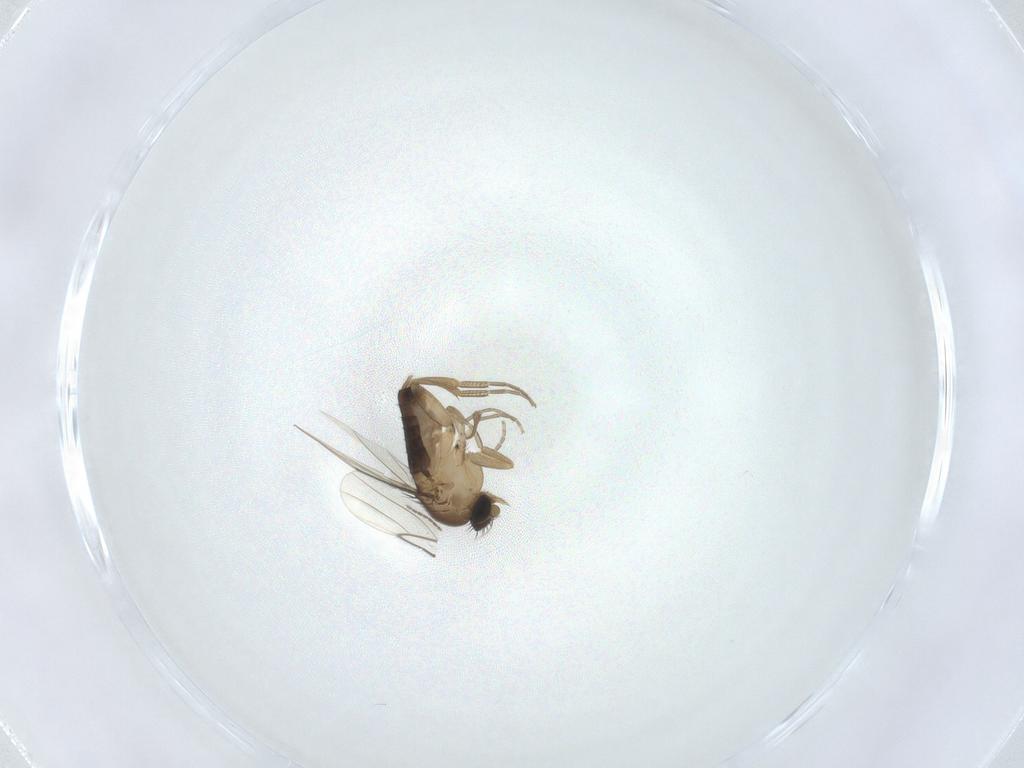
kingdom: Animalia
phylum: Arthropoda
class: Insecta
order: Diptera
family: Phoridae
